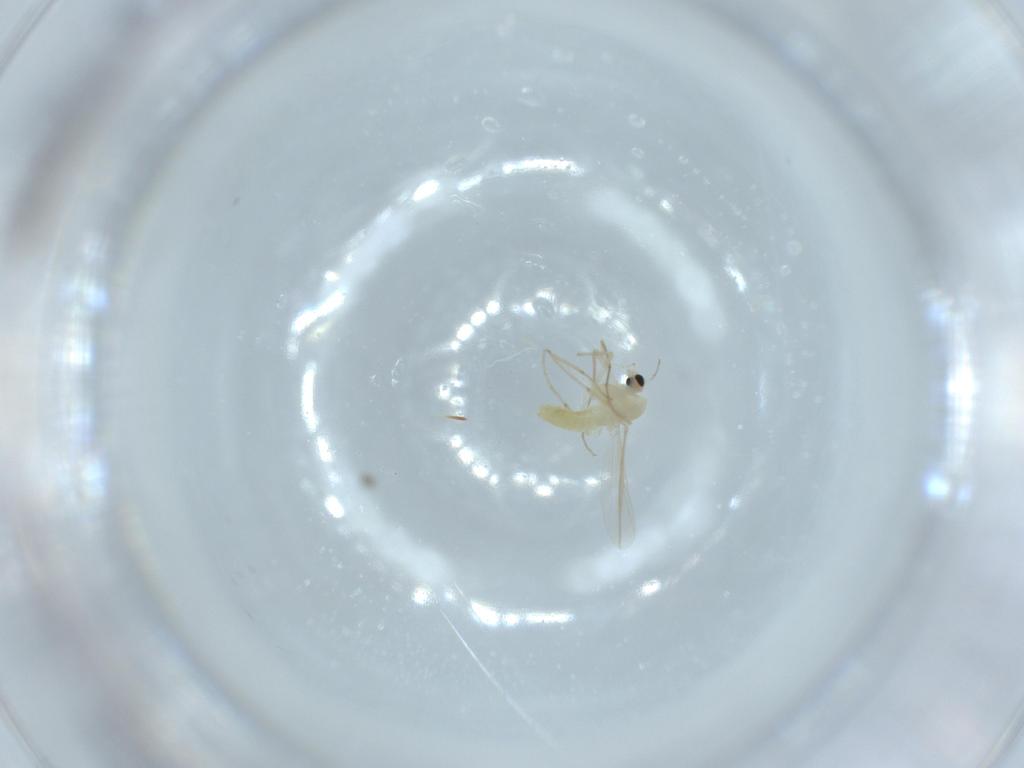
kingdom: Animalia
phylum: Arthropoda
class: Insecta
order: Diptera
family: Chironomidae
